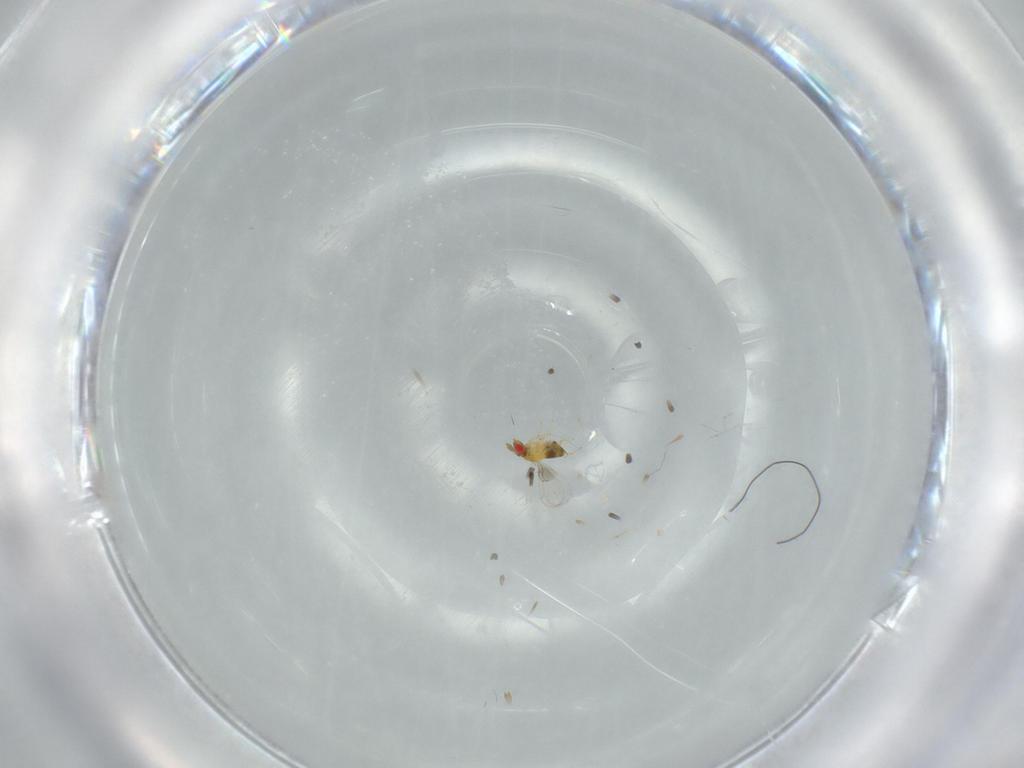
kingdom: Animalia
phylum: Arthropoda
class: Insecta
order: Hymenoptera
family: Trichogrammatidae
